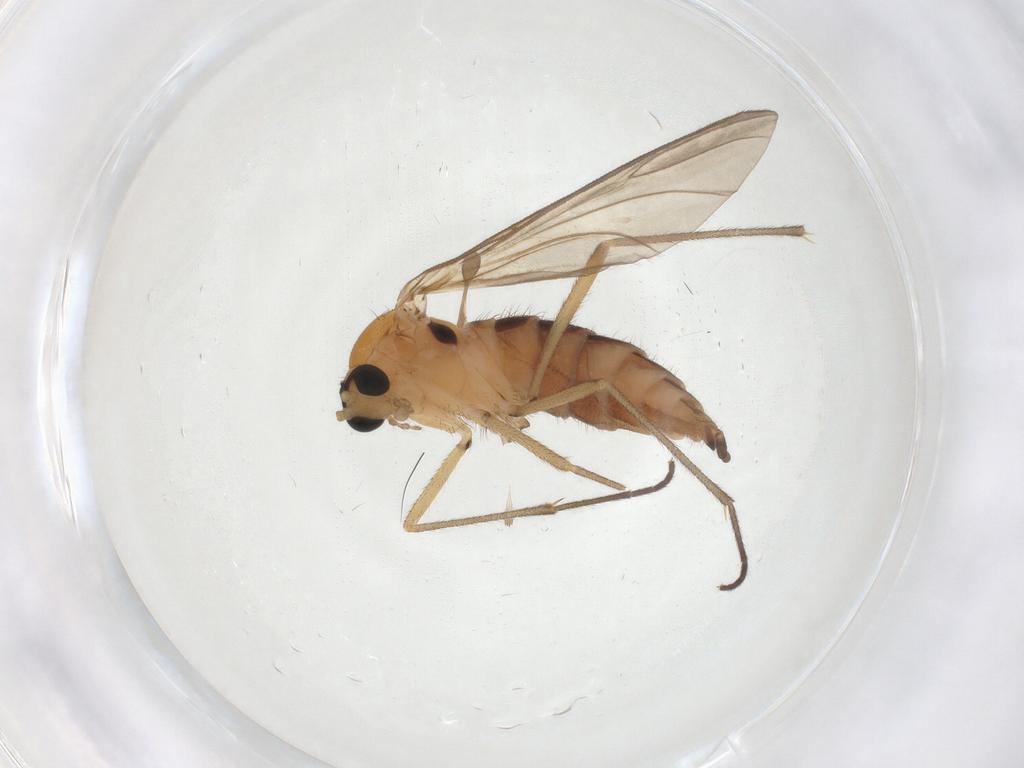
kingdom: Animalia
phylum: Arthropoda
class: Insecta
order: Diptera
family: Sciaridae
